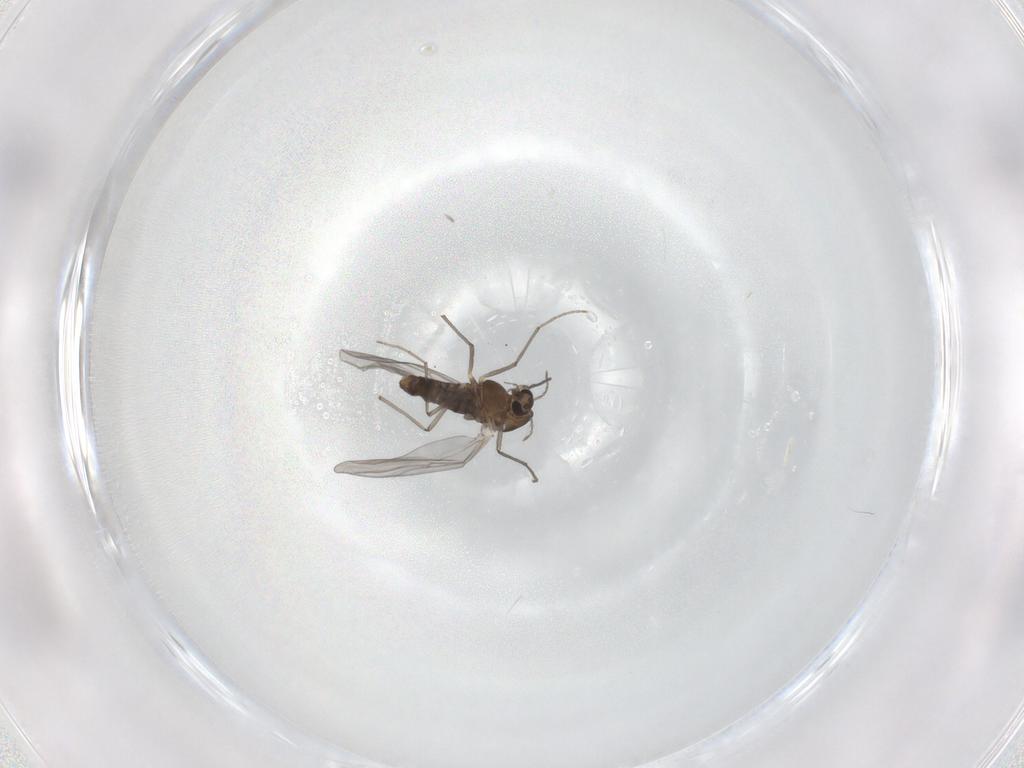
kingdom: Animalia
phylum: Arthropoda
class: Insecta
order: Diptera
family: Chironomidae
